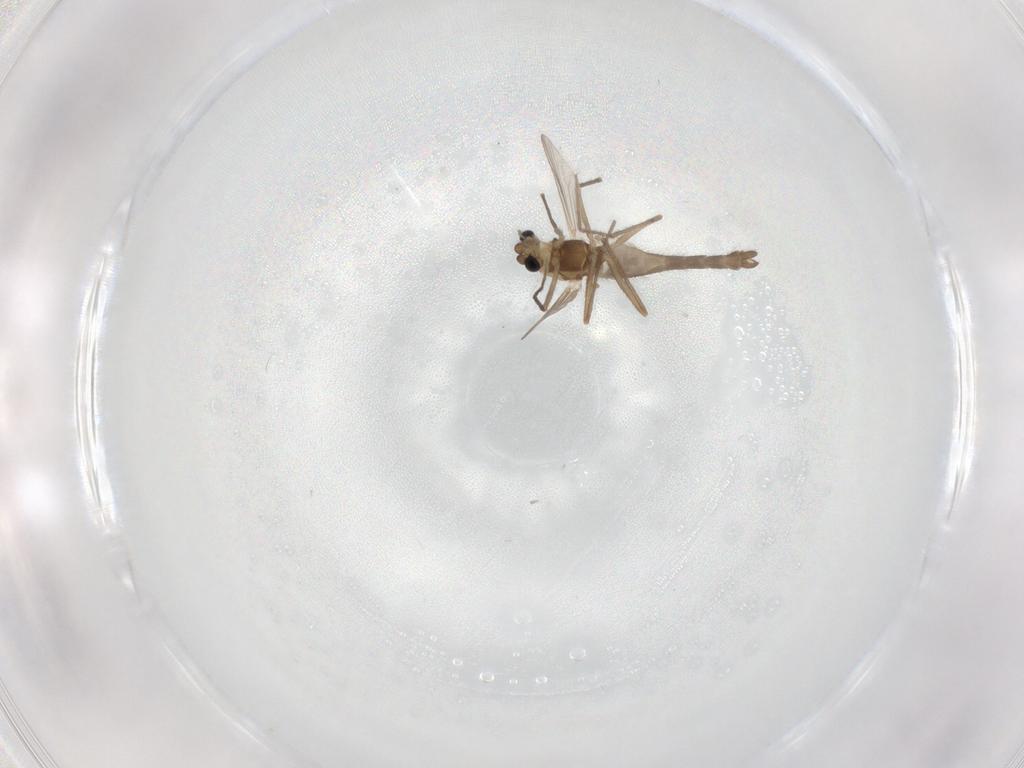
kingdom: Animalia
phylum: Arthropoda
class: Insecta
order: Diptera
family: Chironomidae
